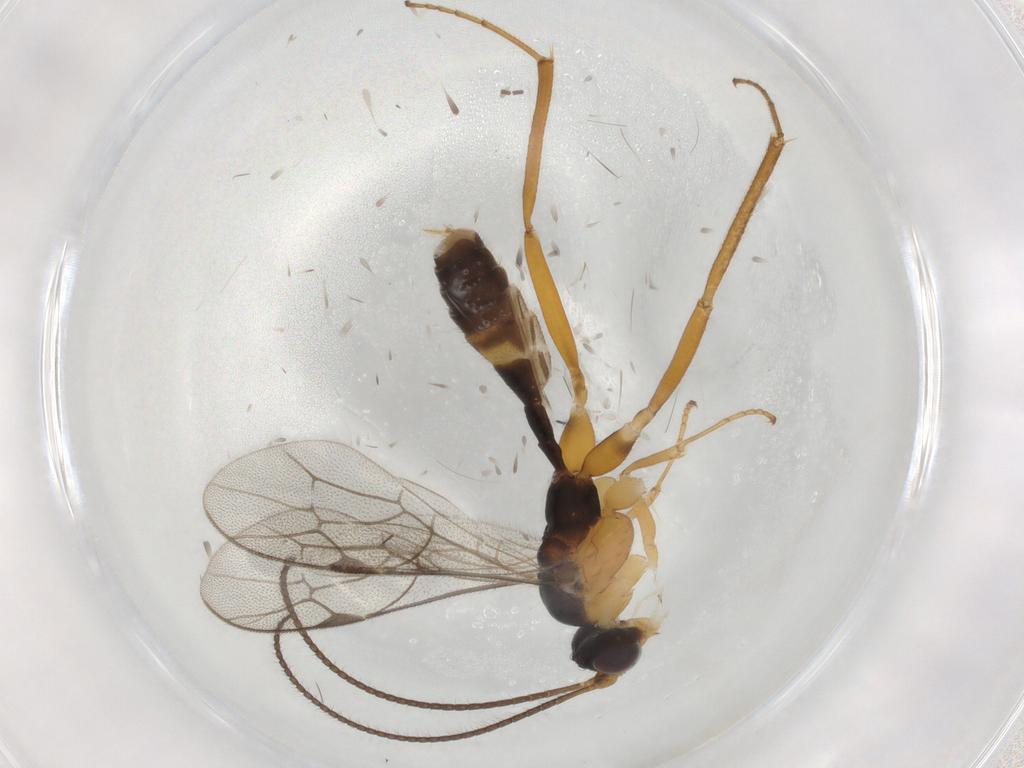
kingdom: Animalia
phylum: Arthropoda
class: Insecta
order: Hymenoptera
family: Ichneumonidae
